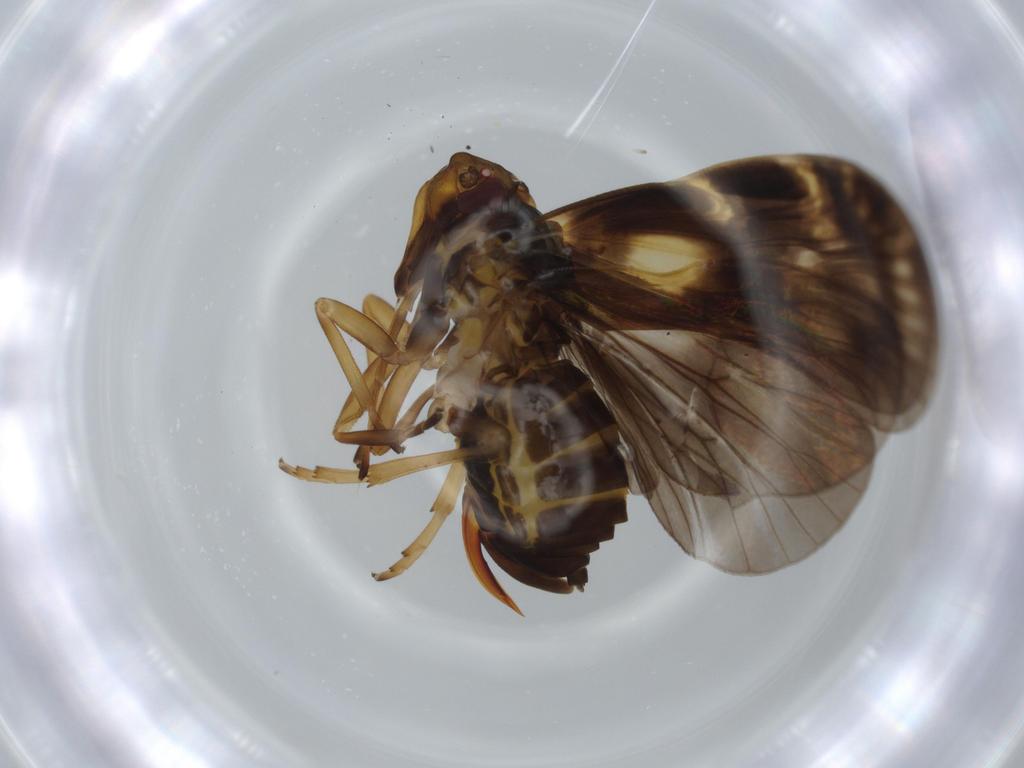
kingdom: Animalia
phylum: Arthropoda
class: Insecta
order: Hemiptera
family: Cixiidae
